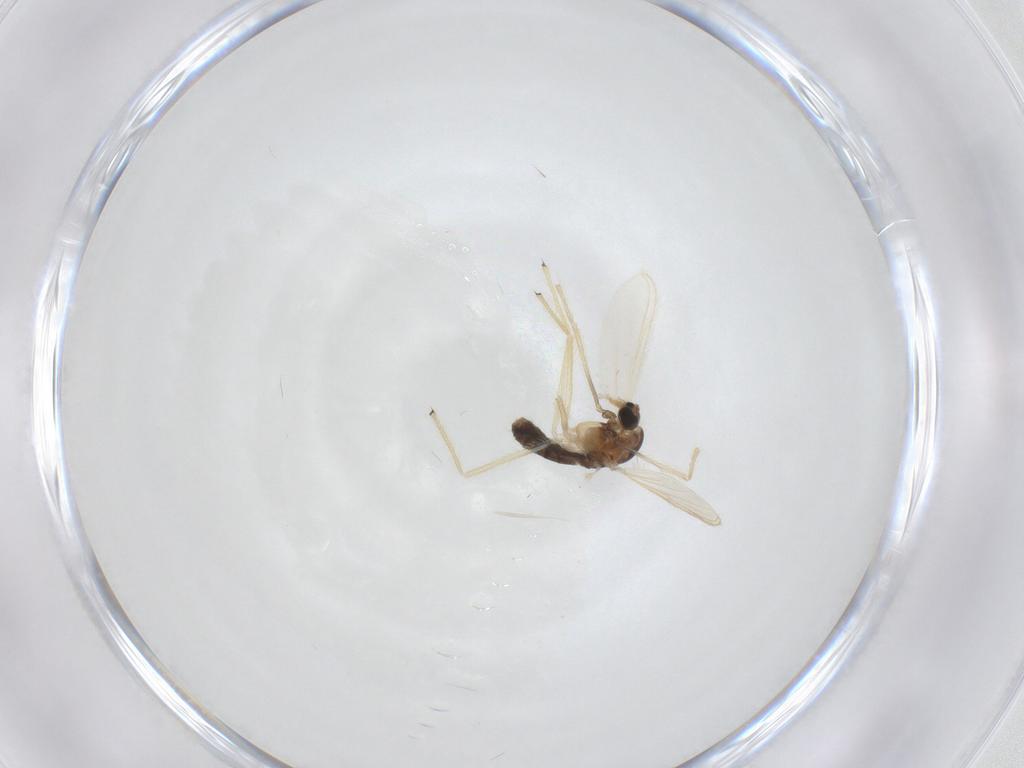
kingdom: Animalia
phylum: Arthropoda
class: Insecta
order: Diptera
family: Chironomidae
